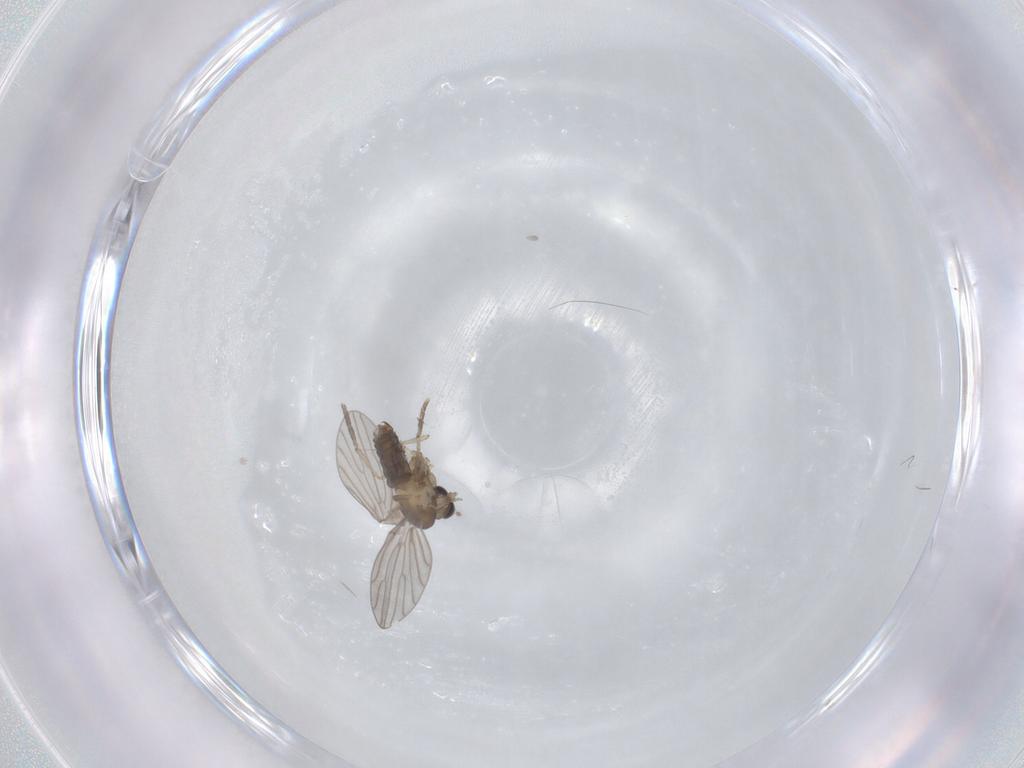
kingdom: Animalia
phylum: Arthropoda
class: Insecta
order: Diptera
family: Psychodidae
